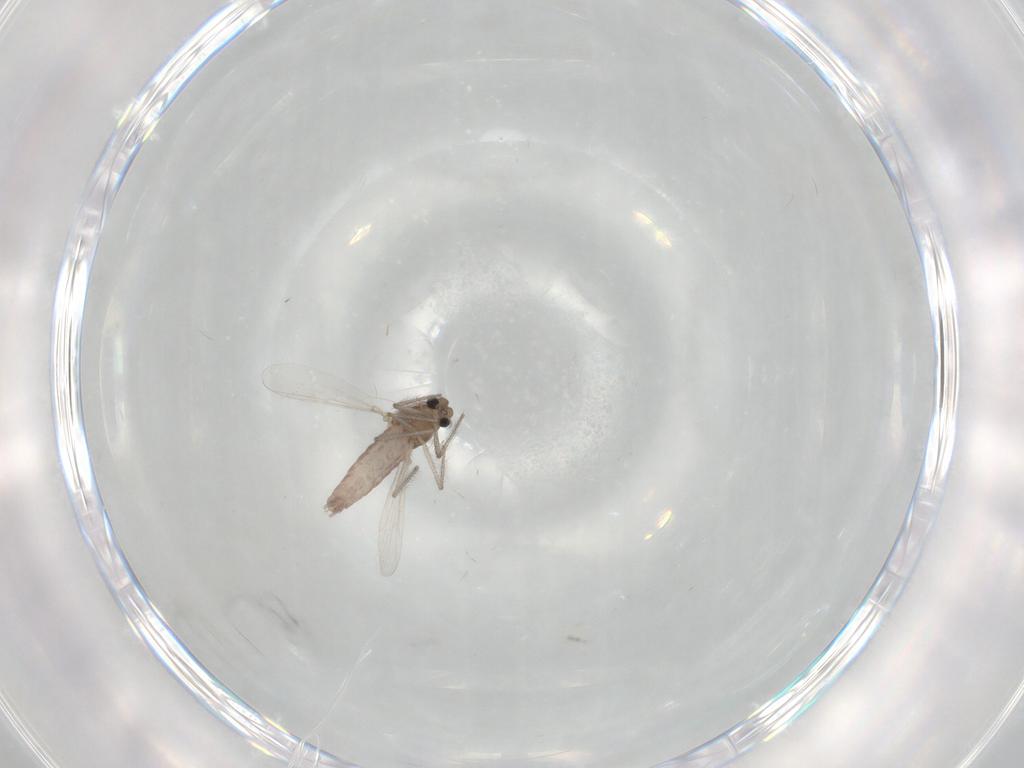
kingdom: Animalia
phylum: Arthropoda
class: Insecta
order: Diptera
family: Chironomidae
